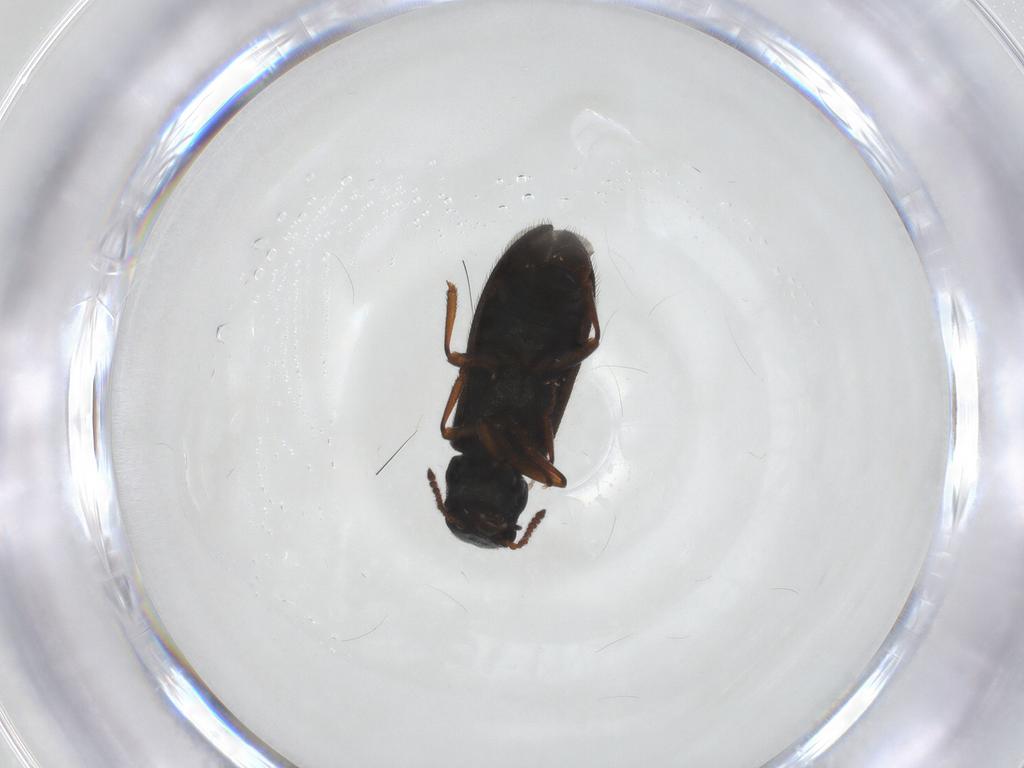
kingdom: Animalia
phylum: Arthropoda
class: Insecta
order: Coleoptera
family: Melyridae
